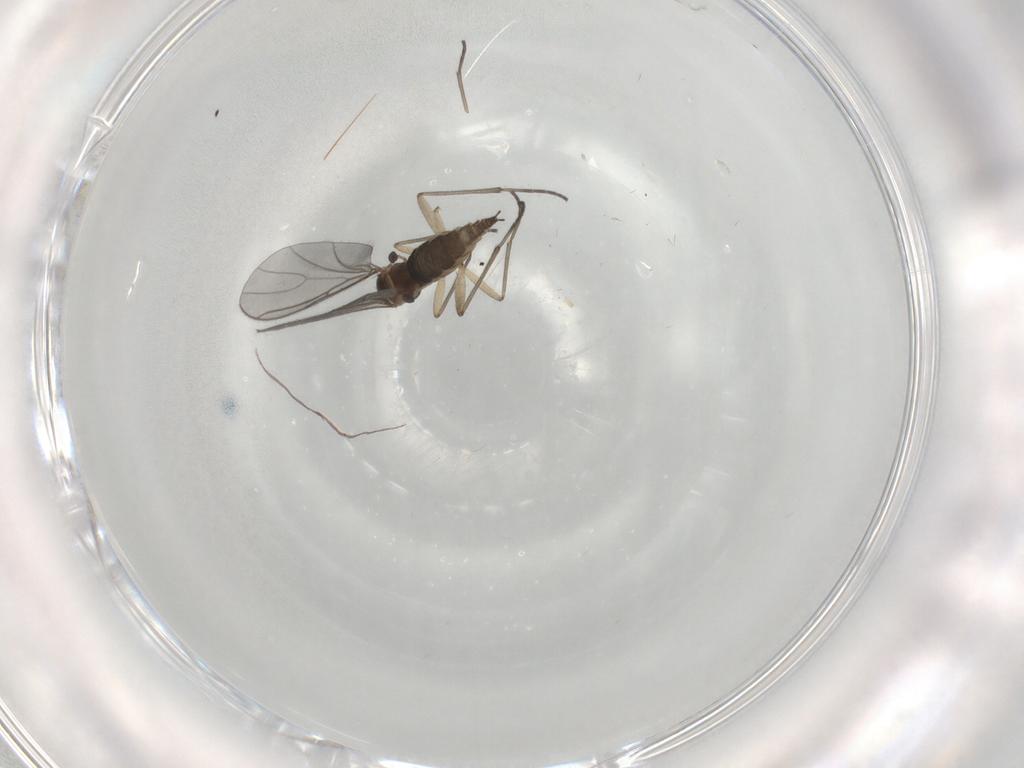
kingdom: Animalia
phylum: Arthropoda
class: Insecta
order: Diptera
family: Sciaridae
